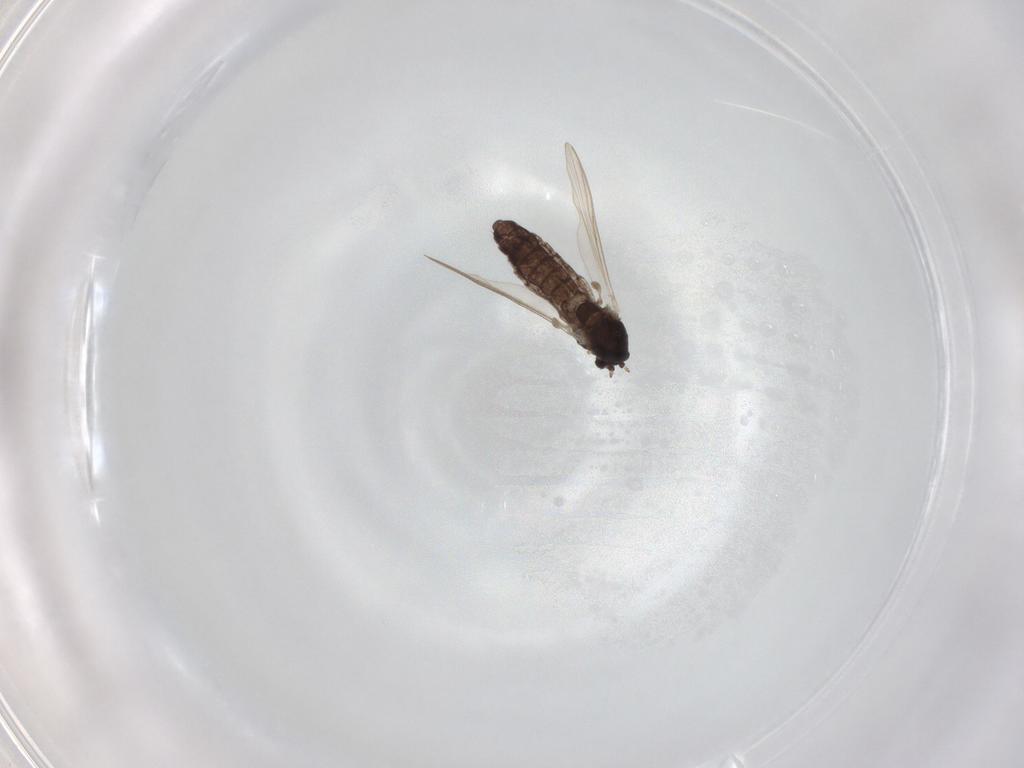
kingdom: Animalia
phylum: Arthropoda
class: Insecta
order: Diptera
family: Chironomidae
